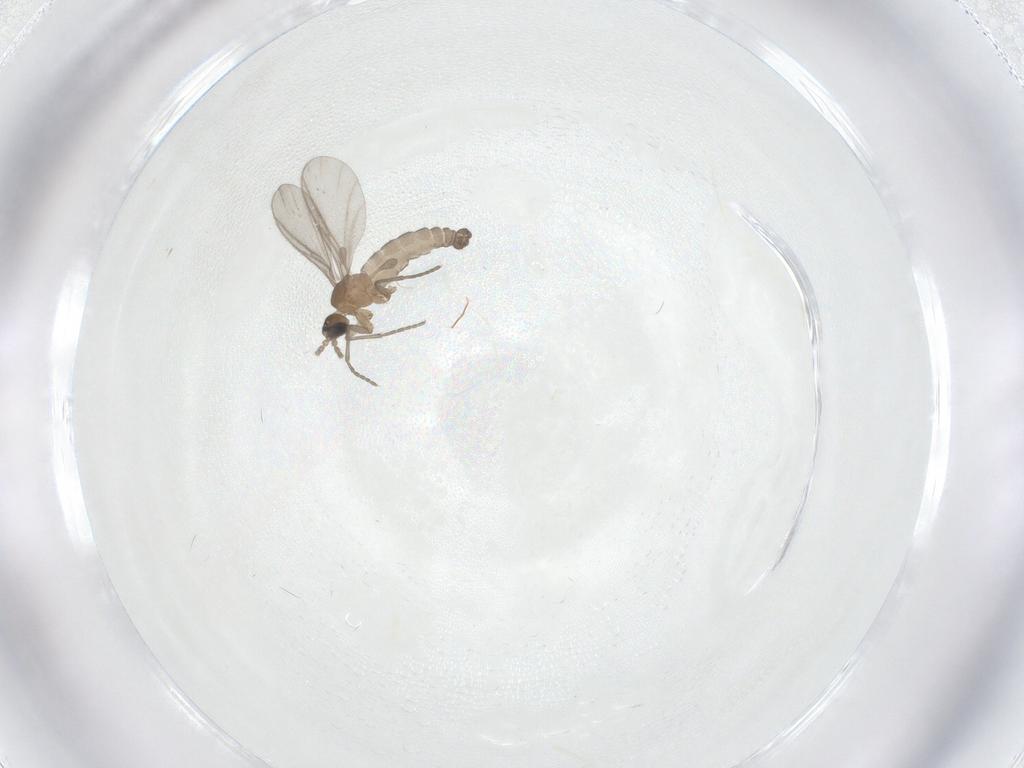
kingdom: Animalia
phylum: Arthropoda
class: Insecta
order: Diptera
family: Sciaridae
